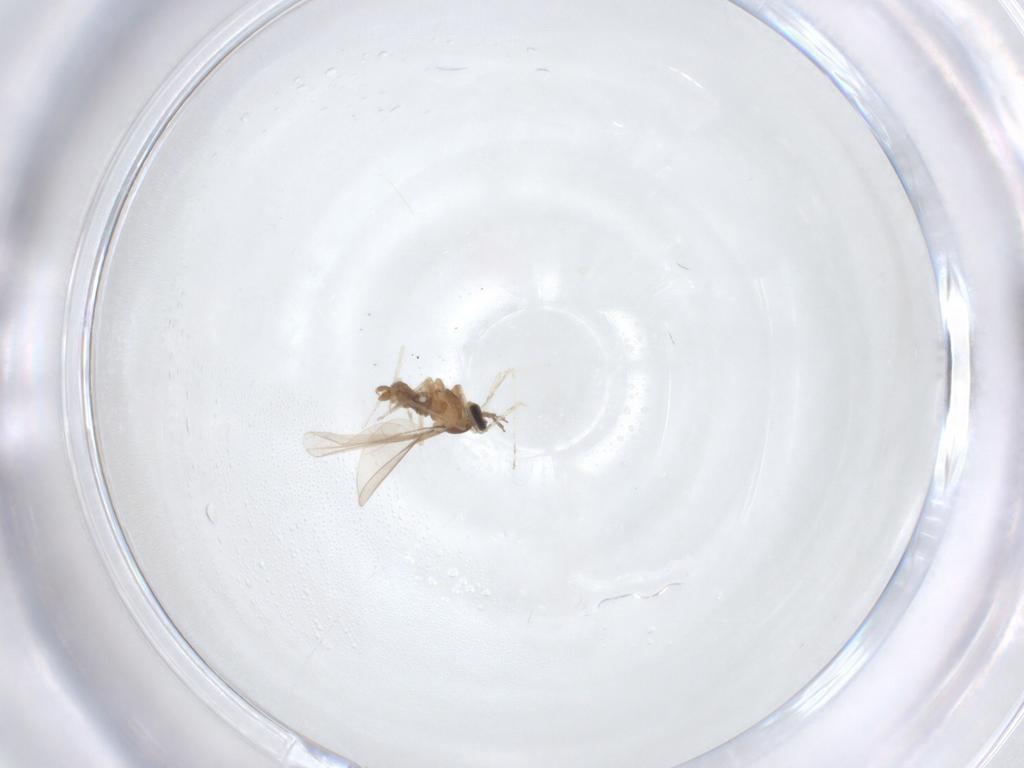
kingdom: Animalia
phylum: Arthropoda
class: Insecta
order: Diptera
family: Cecidomyiidae
